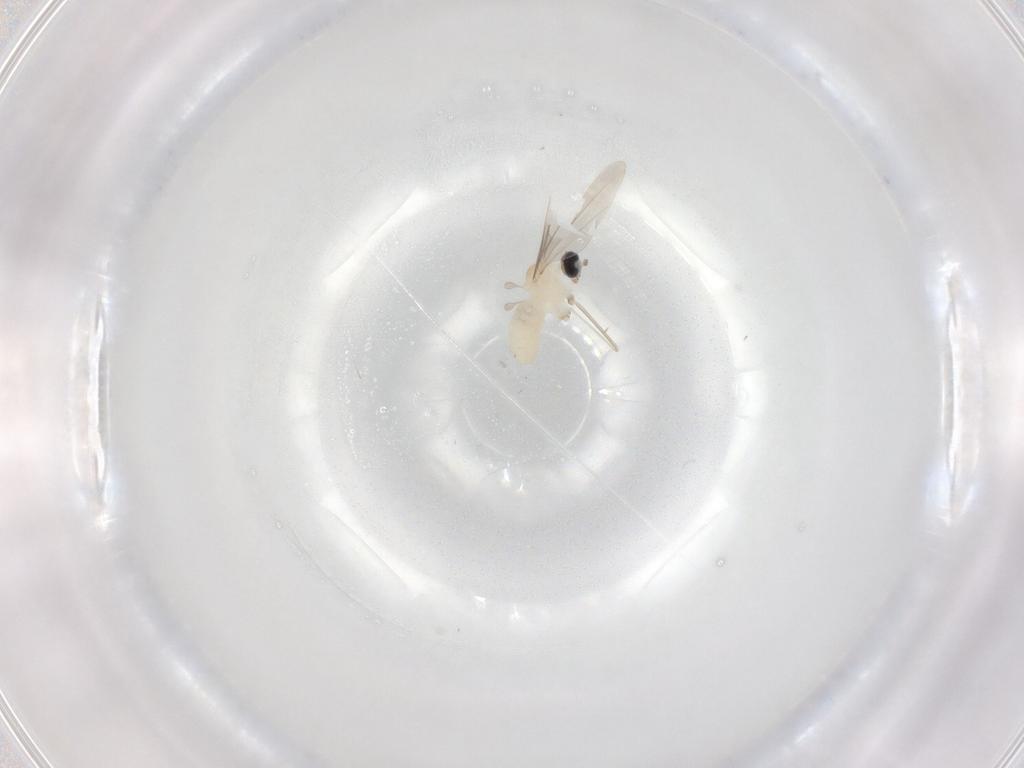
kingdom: Animalia
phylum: Arthropoda
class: Insecta
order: Diptera
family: Cecidomyiidae
